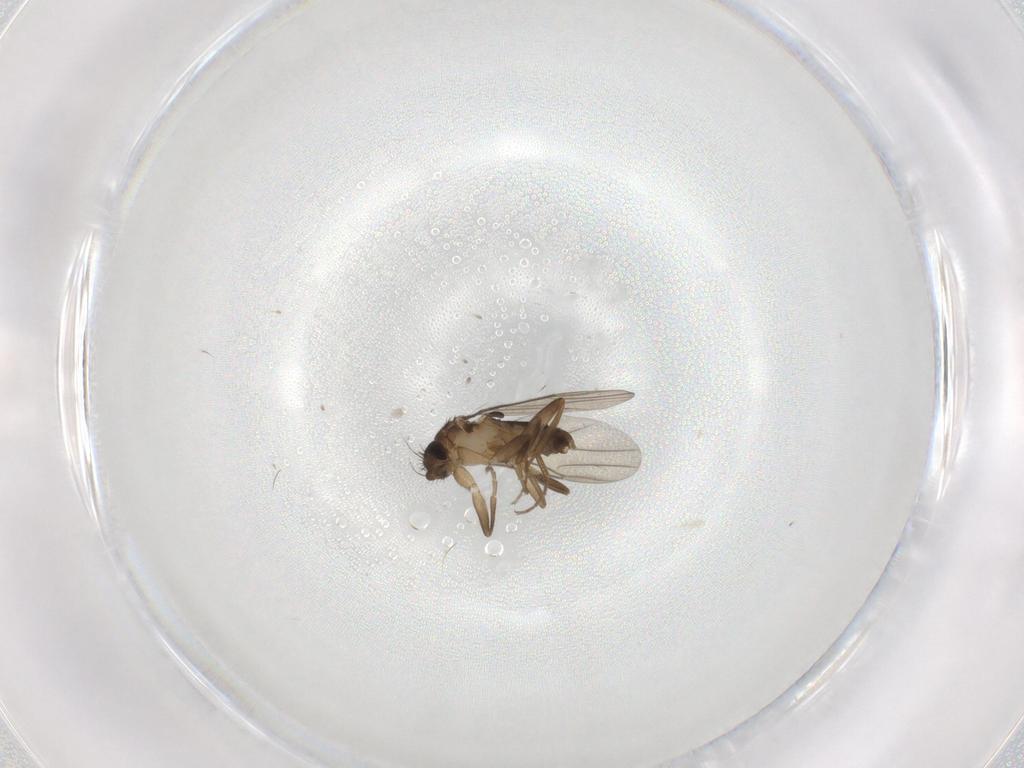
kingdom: Animalia
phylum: Arthropoda
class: Insecta
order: Diptera
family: Phoridae
